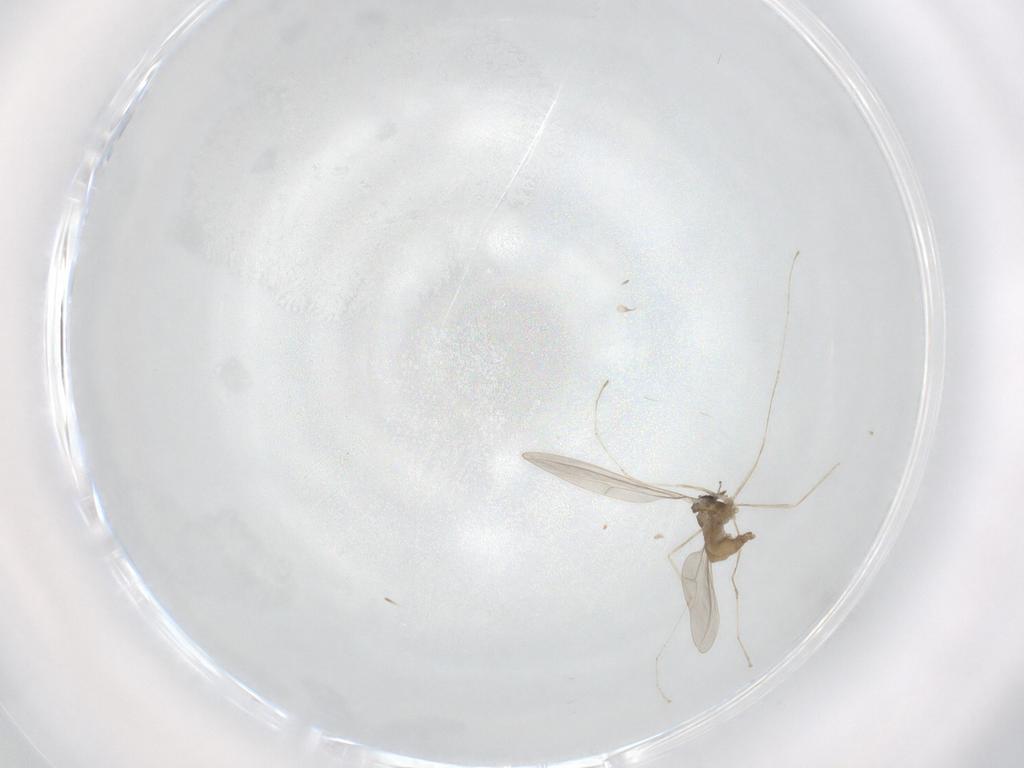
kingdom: Animalia
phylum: Arthropoda
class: Insecta
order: Diptera
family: Cecidomyiidae
